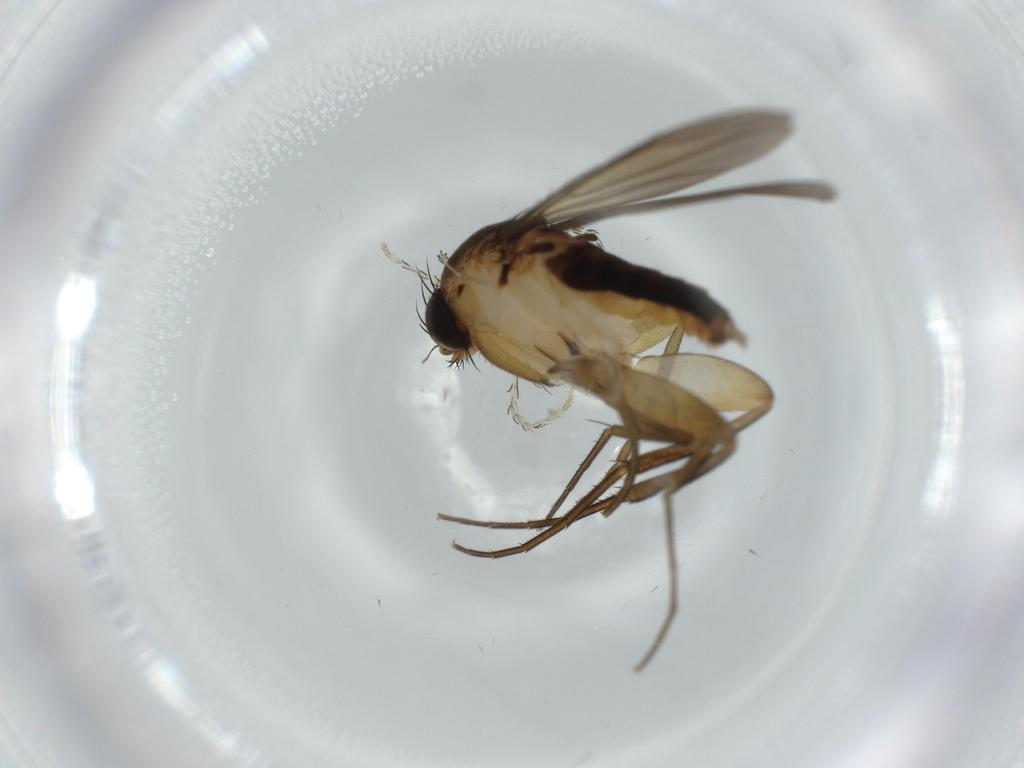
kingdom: Animalia
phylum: Arthropoda
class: Insecta
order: Diptera
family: Phoridae
